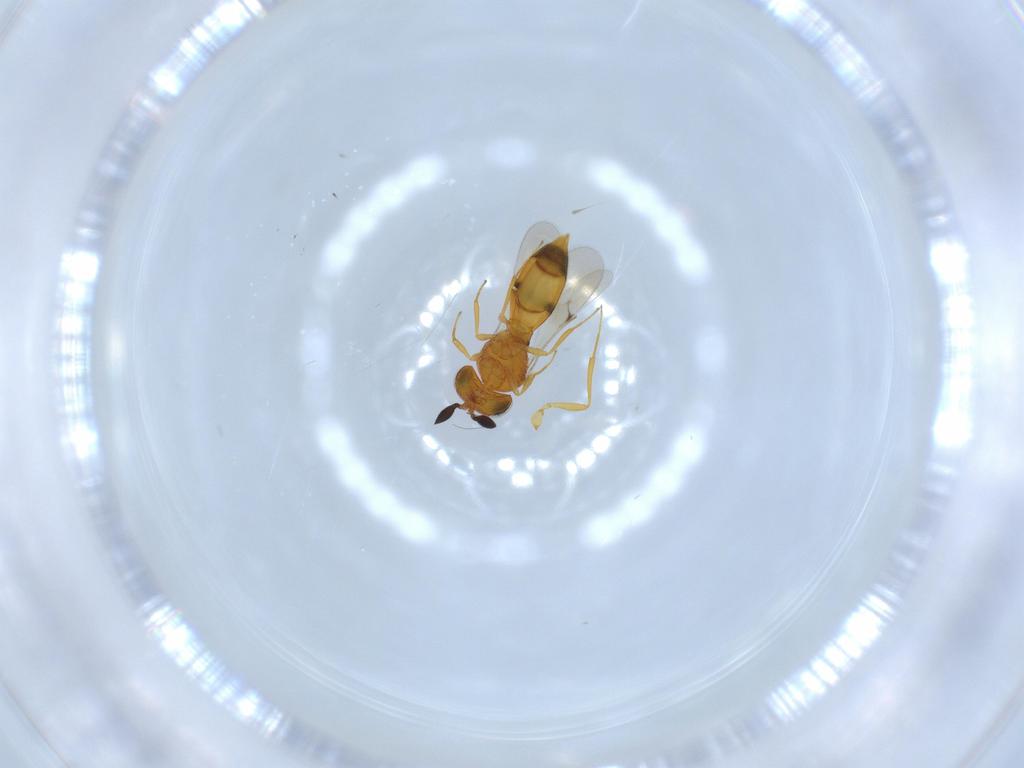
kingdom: Animalia
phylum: Arthropoda
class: Insecta
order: Hymenoptera
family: Scelionidae
